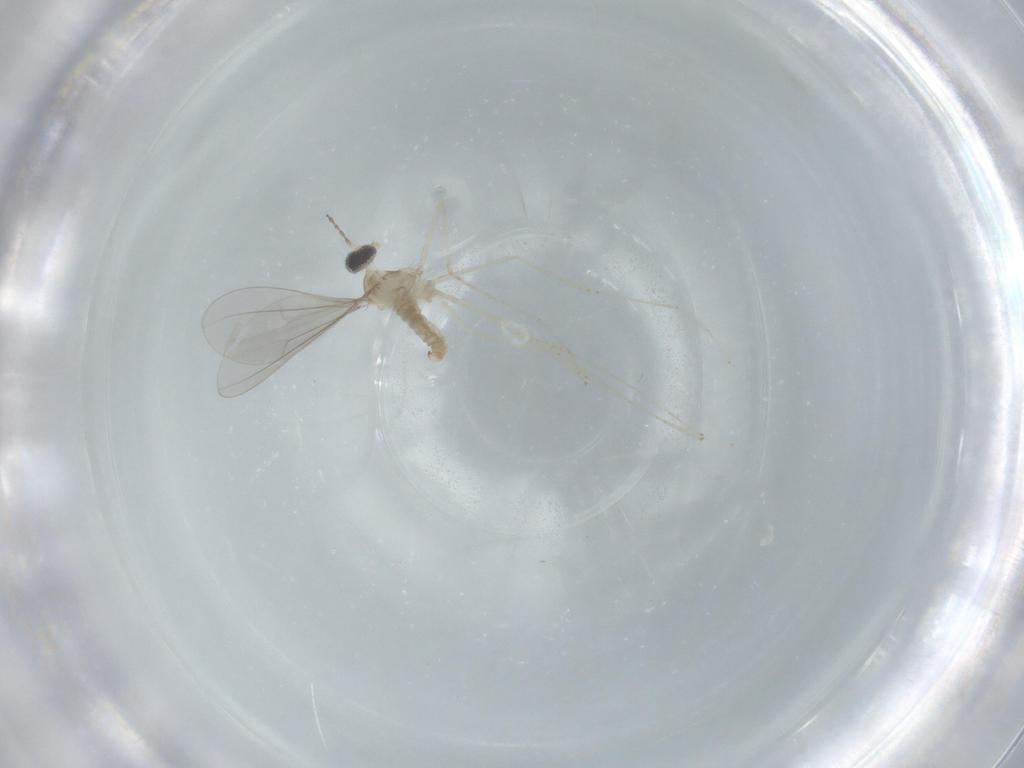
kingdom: Animalia
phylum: Arthropoda
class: Insecta
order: Diptera
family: Cecidomyiidae
